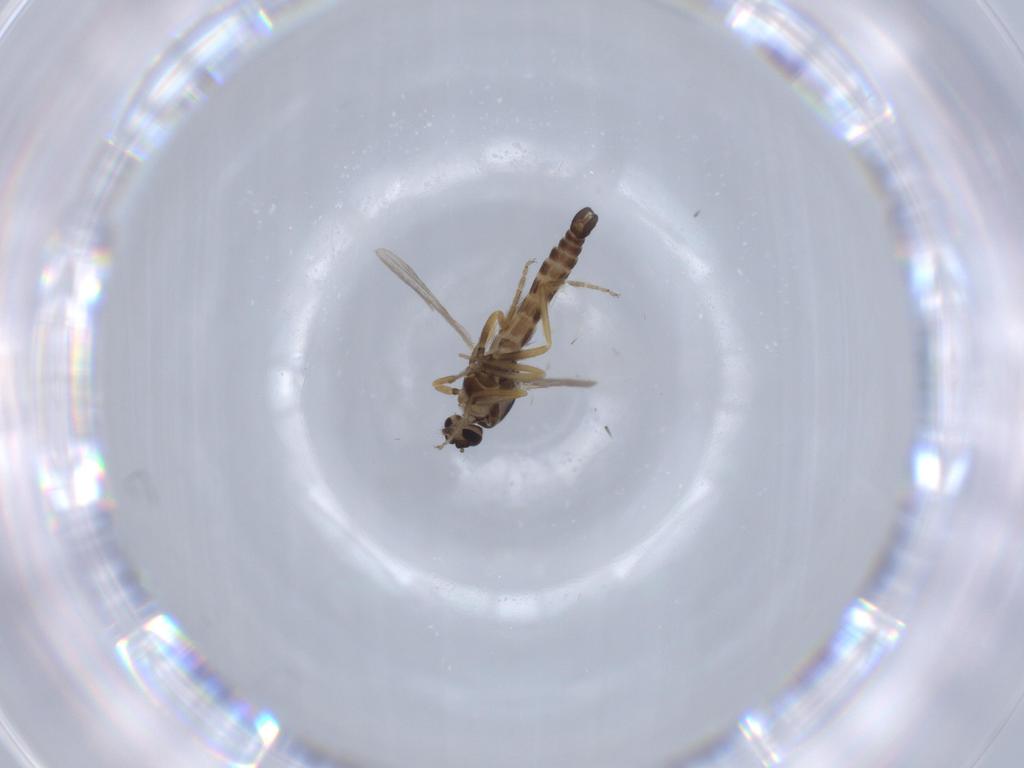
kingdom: Animalia
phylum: Arthropoda
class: Insecta
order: Diptera
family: Ceratopogonidae
